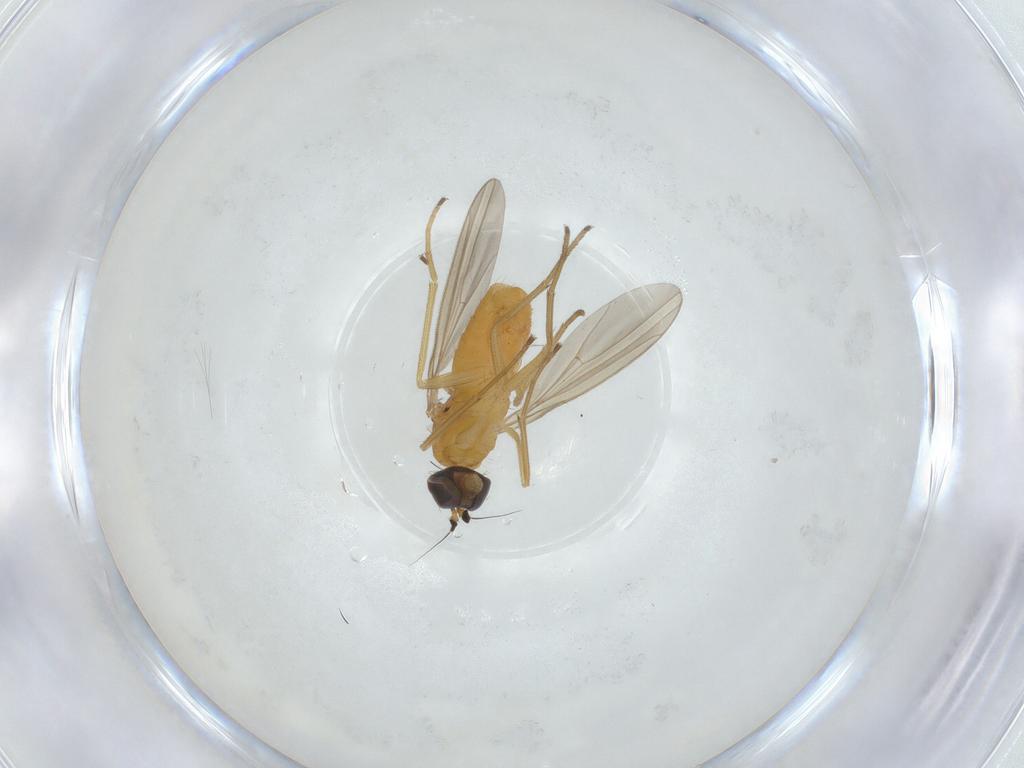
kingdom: Animalia
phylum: Arthropoda
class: Insecta
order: Diptera
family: Dolichopodidae
